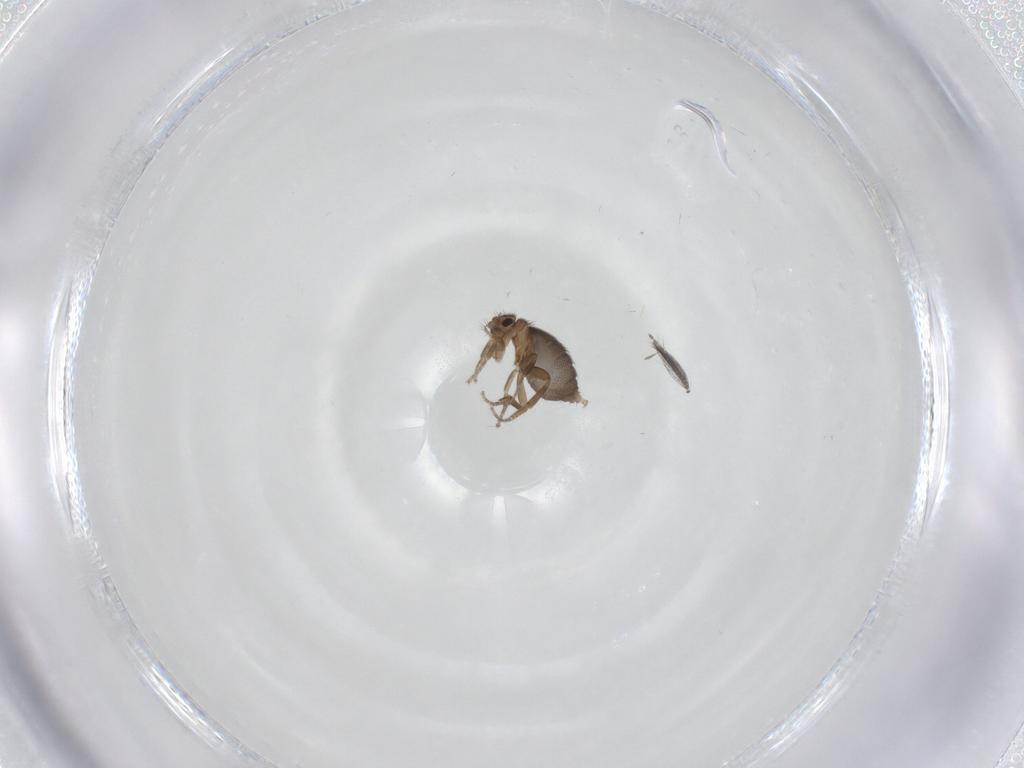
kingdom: Animalia
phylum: Arthropoda
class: Insecta
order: Diptera
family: Ceratopogonidae
